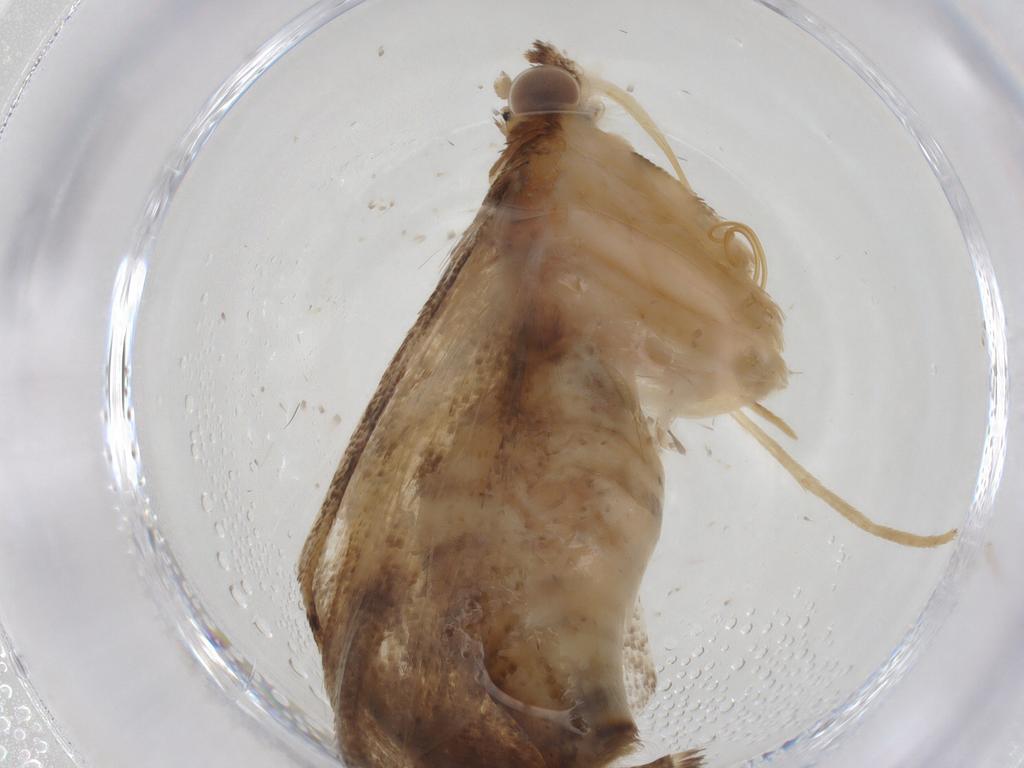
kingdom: Animalia
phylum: Arthropoda
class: Insecta
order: Lepidoptera
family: Crambidae
